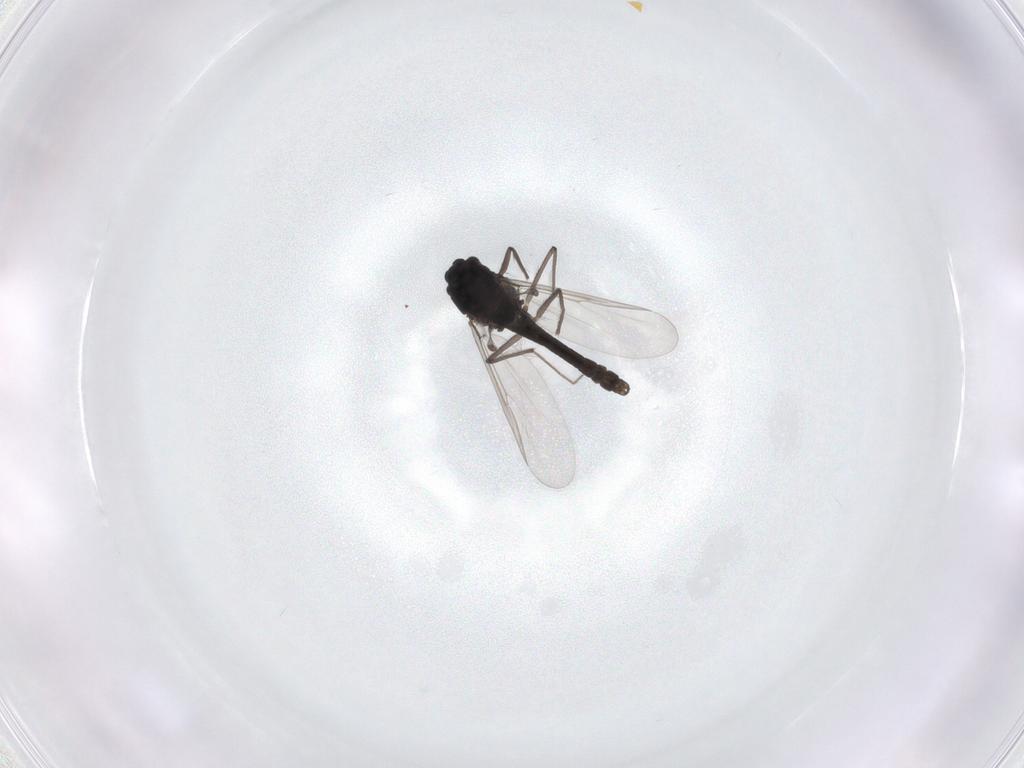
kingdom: Animalia
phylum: Arthropoda
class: Insecta
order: Diptera
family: Chironomidae
